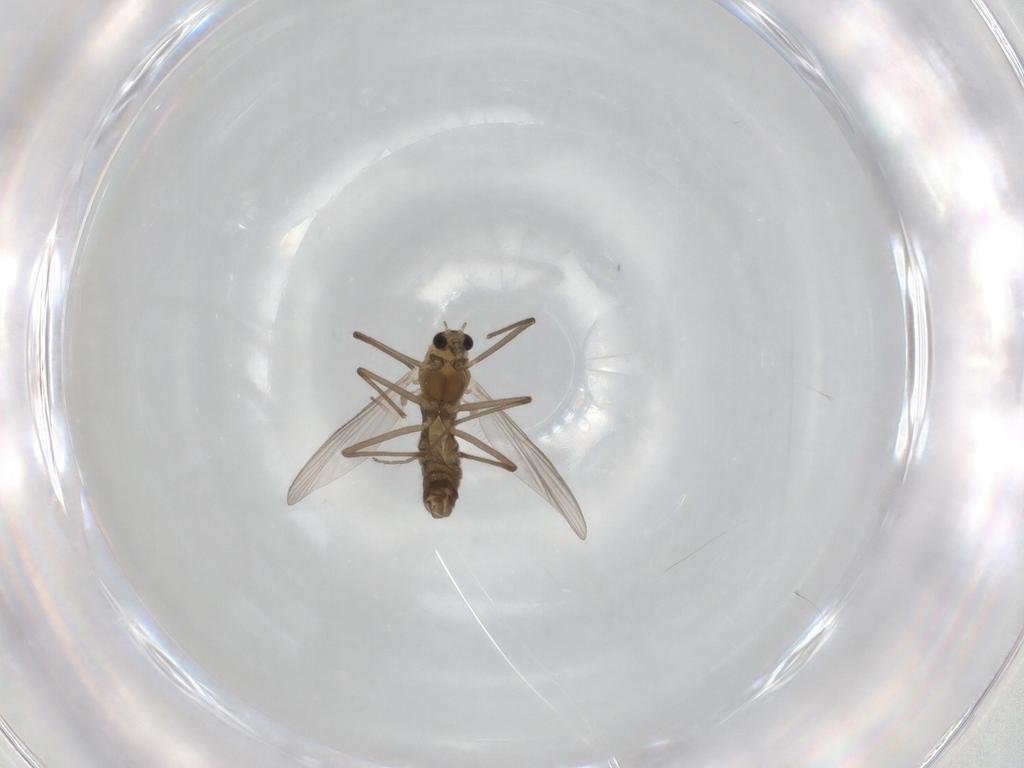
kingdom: Animalia
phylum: Arthropoda
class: Insecta
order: Diptera
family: Chironomidae
